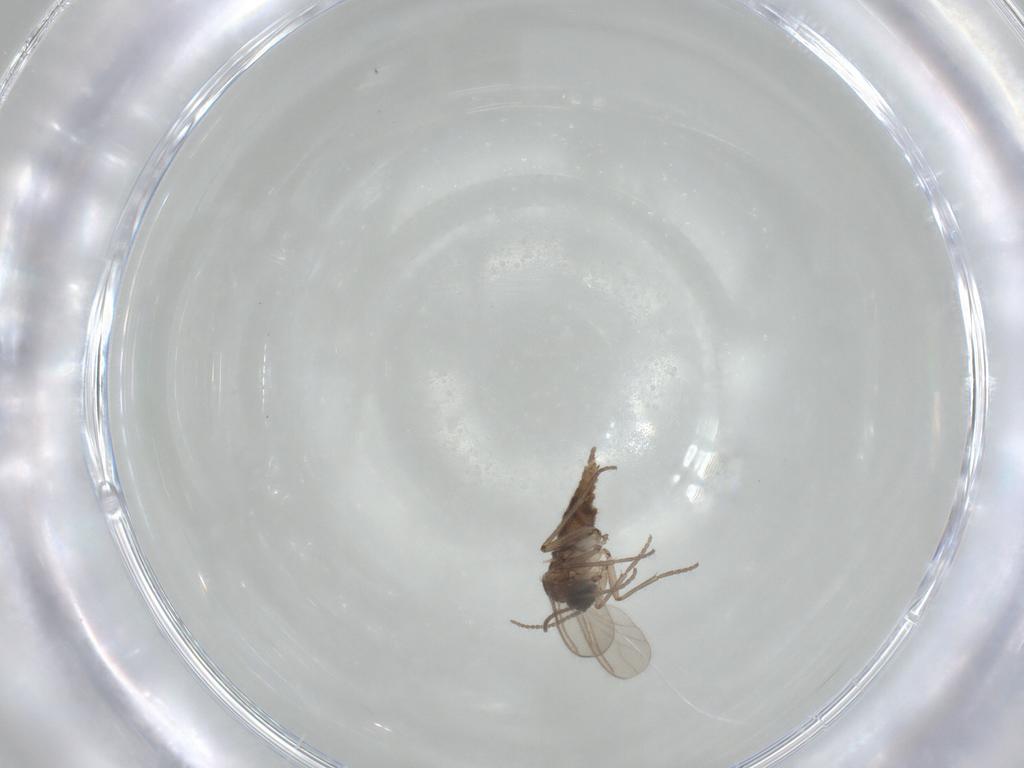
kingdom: Animalia
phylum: Arthropoda
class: Insecta
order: Diptera
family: Sciaridae
